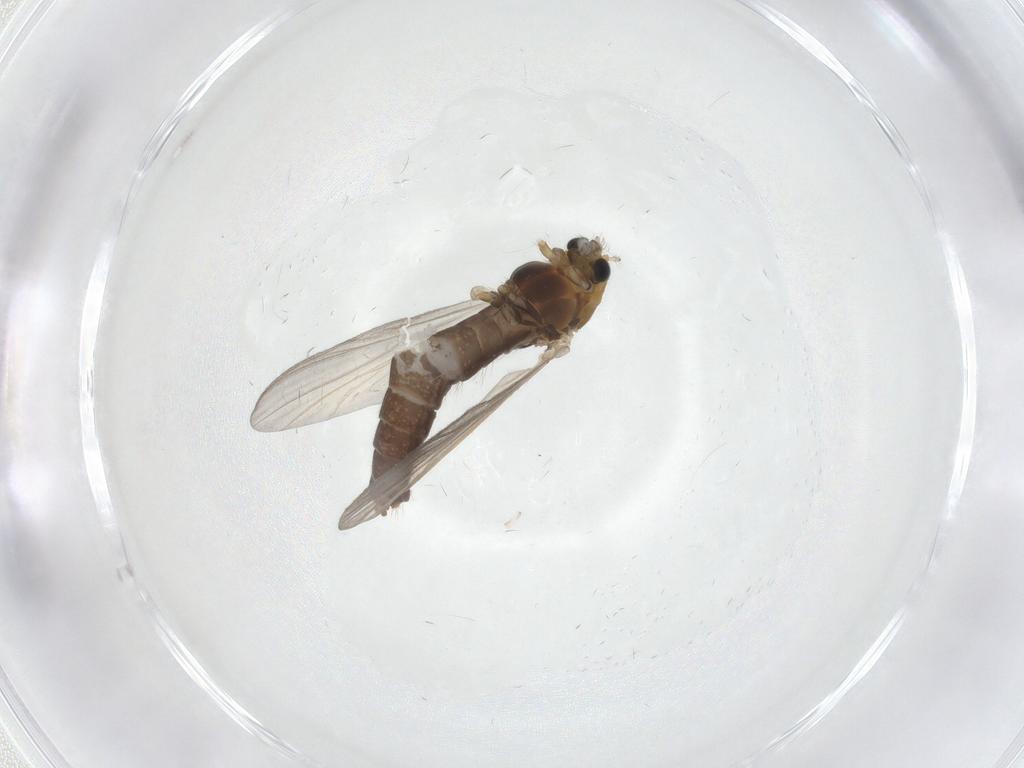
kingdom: Animalia
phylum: Arthropoda
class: Insecta
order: Diptera
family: Chironomidae
